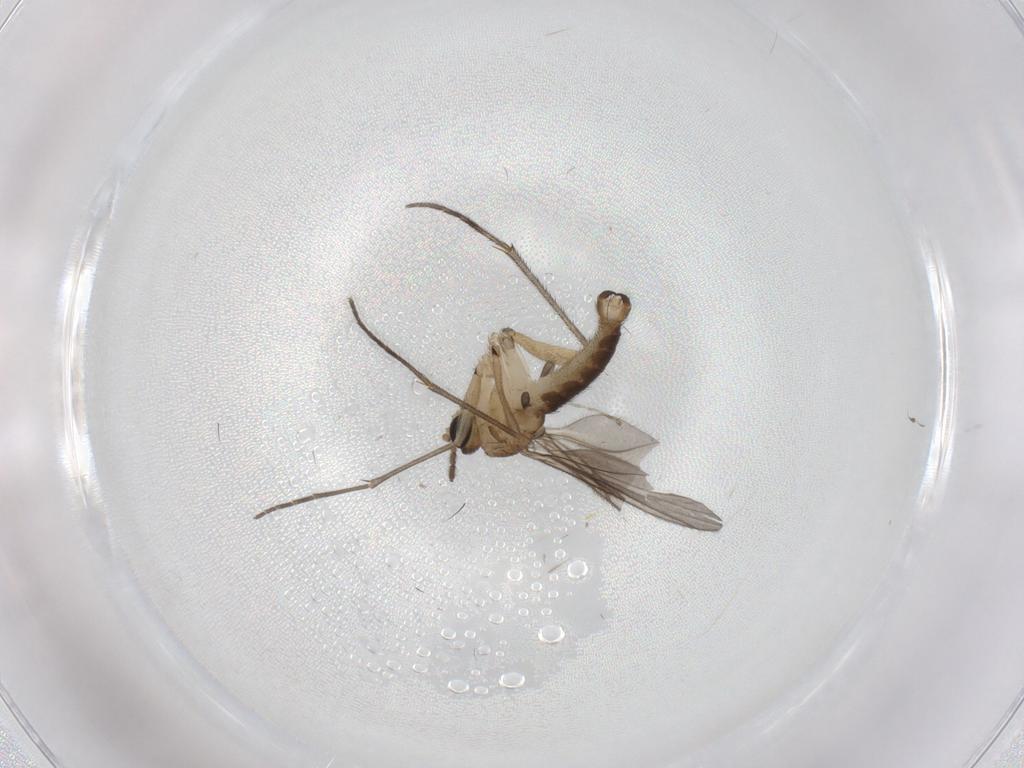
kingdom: Animalia
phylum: Arthropoda
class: Insecta
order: Diptera
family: Sciaridae
